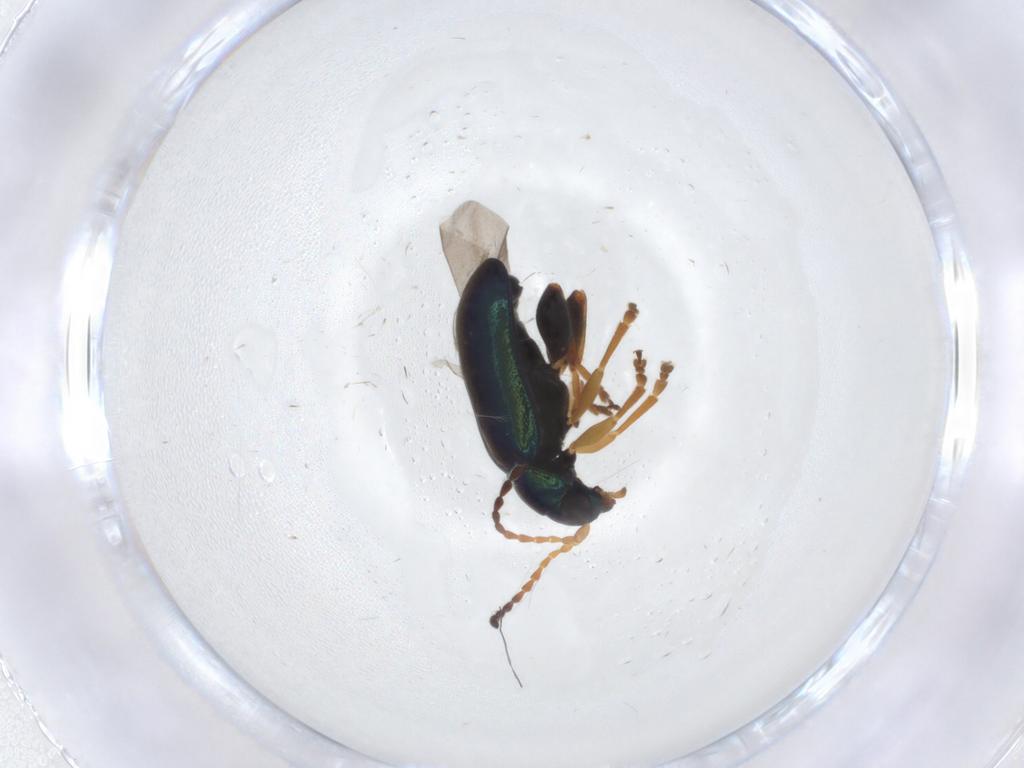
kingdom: Animalia
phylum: Arthropoda
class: Insecta
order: Coleoptera
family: Chrysomelidae
